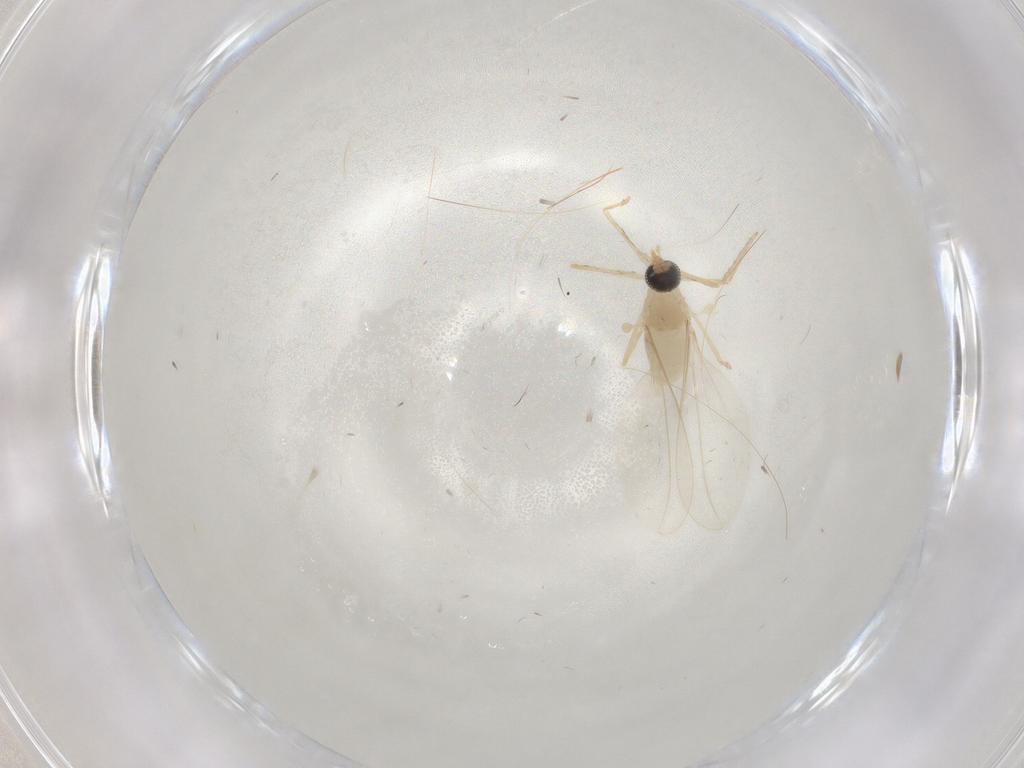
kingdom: Animalia
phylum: Arthropoda
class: Insecta
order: Diptera
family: Cecidomyiidae
